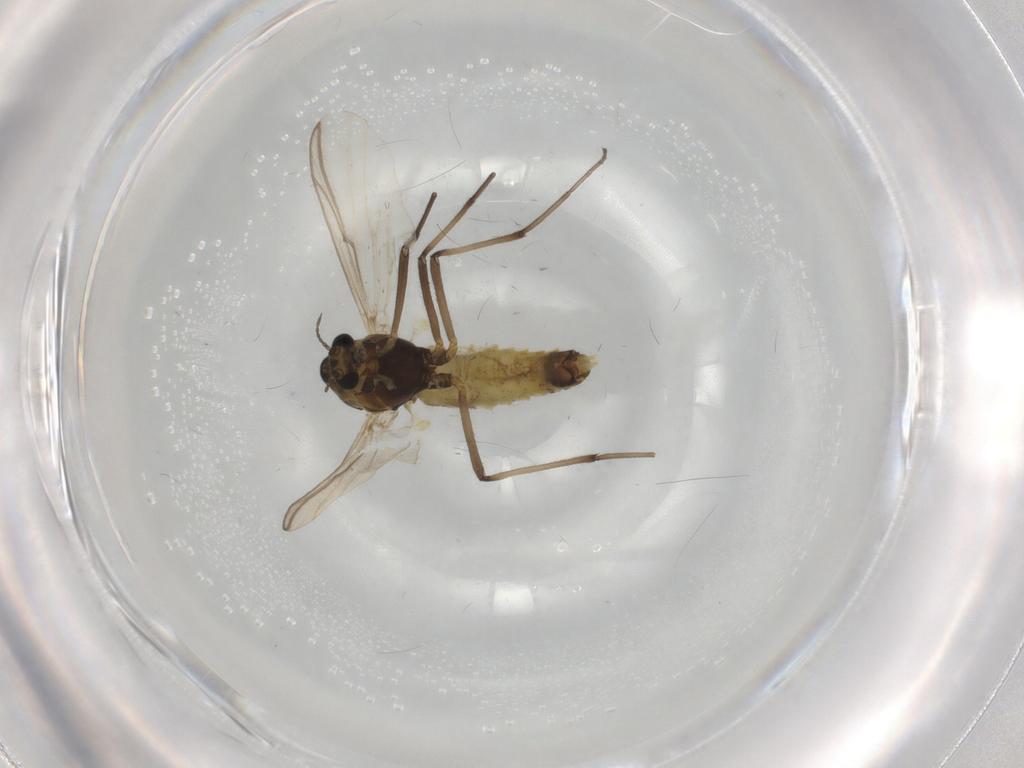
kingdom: Animalia
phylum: Arthropoda
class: Insecta
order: Diptera
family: Chironomidae
